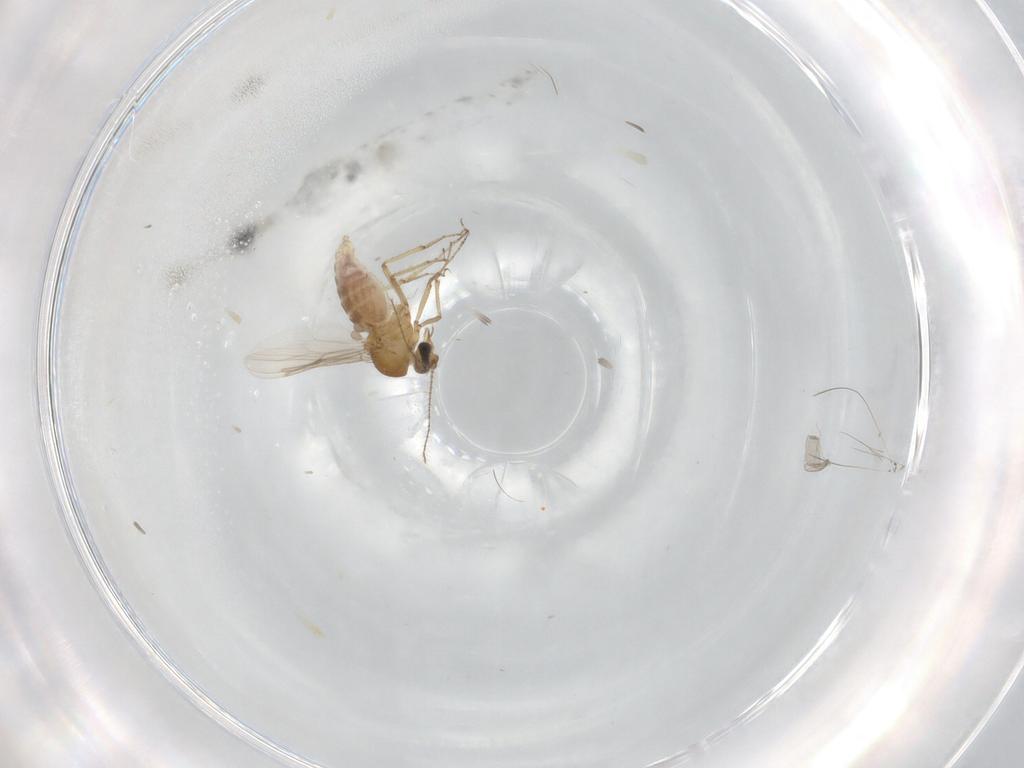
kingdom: Animalia
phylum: Arthropoda
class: Insecta
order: Diptera
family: Psychodidae
